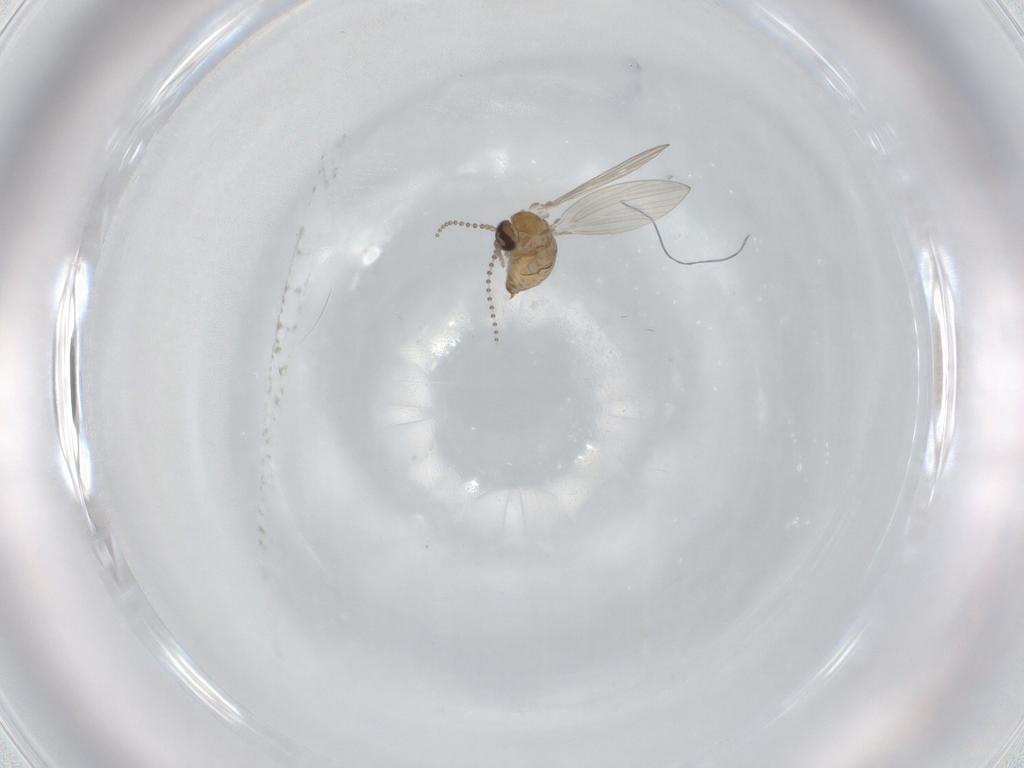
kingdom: Animalia
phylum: Arthropoda
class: Insecta
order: Diptera
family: Psychodidae
